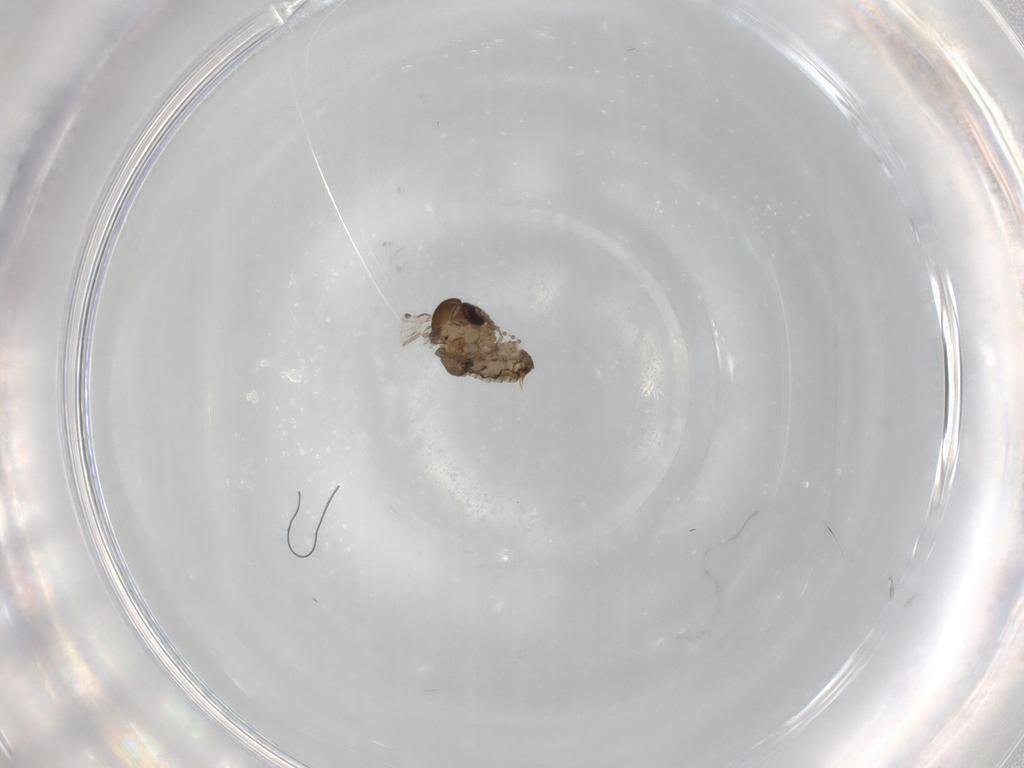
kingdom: Animalia
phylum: Arthropoda
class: Insecta
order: Diptera
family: Psychodidae
